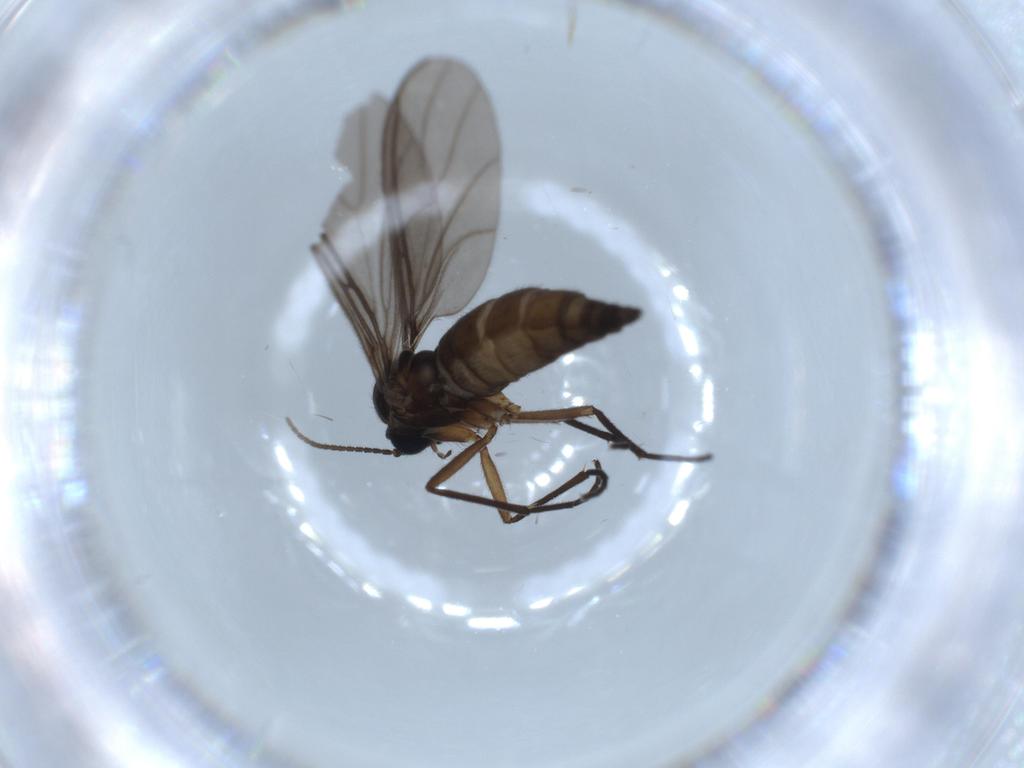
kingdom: Animalia
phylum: Arthropoda
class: Insecta
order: Diptera
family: Sciaridae
